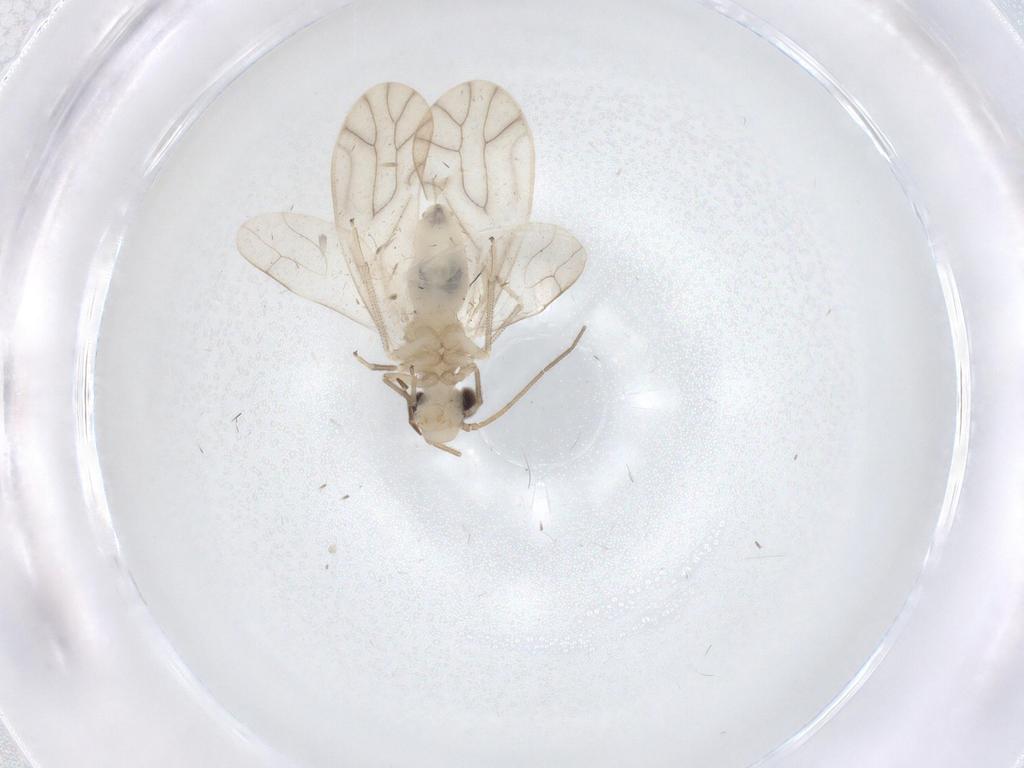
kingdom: Animalia
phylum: Arthropoda
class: Insecta
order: Psocodea
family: Caeciliusidae
